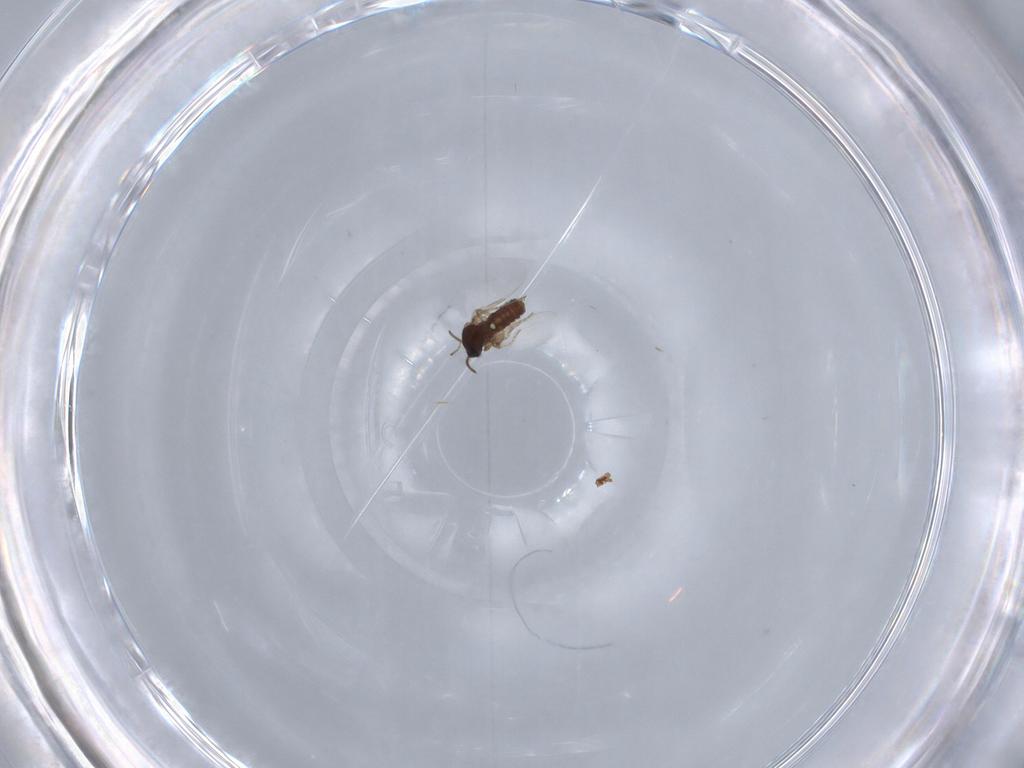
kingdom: Animalia
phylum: Arthropoda
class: Insecta
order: Diptera
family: Ceratopogonidae
